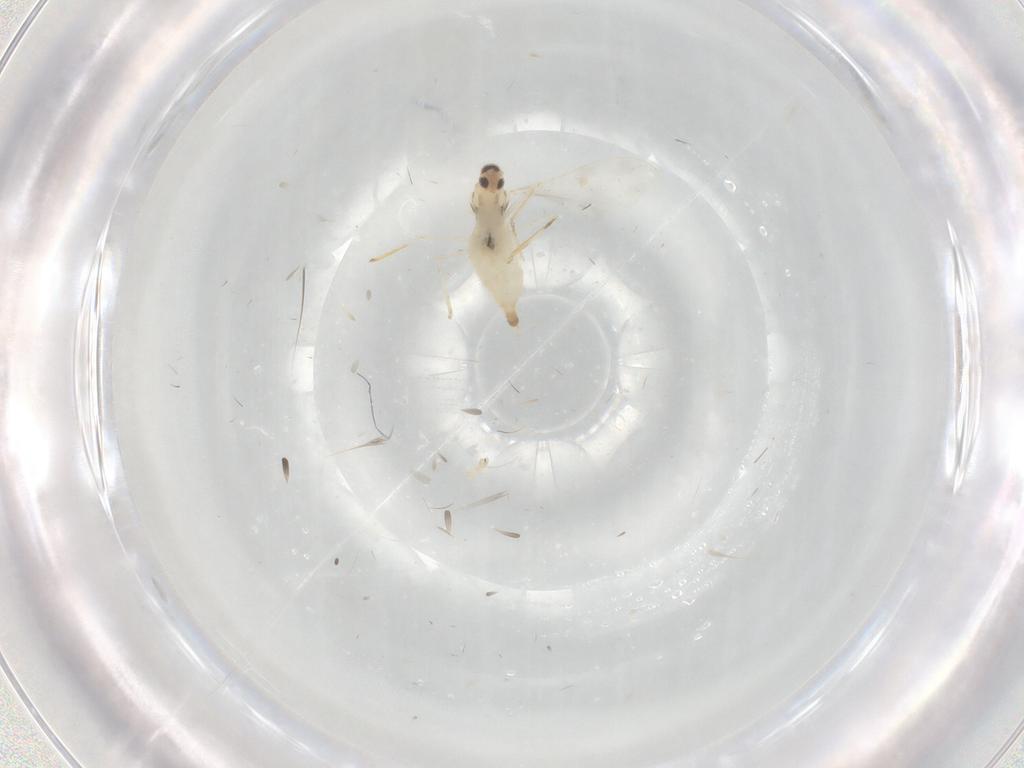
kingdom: Animalia
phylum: Arthropoda
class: Insecta
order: Diptera
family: Cecidomyiidae
